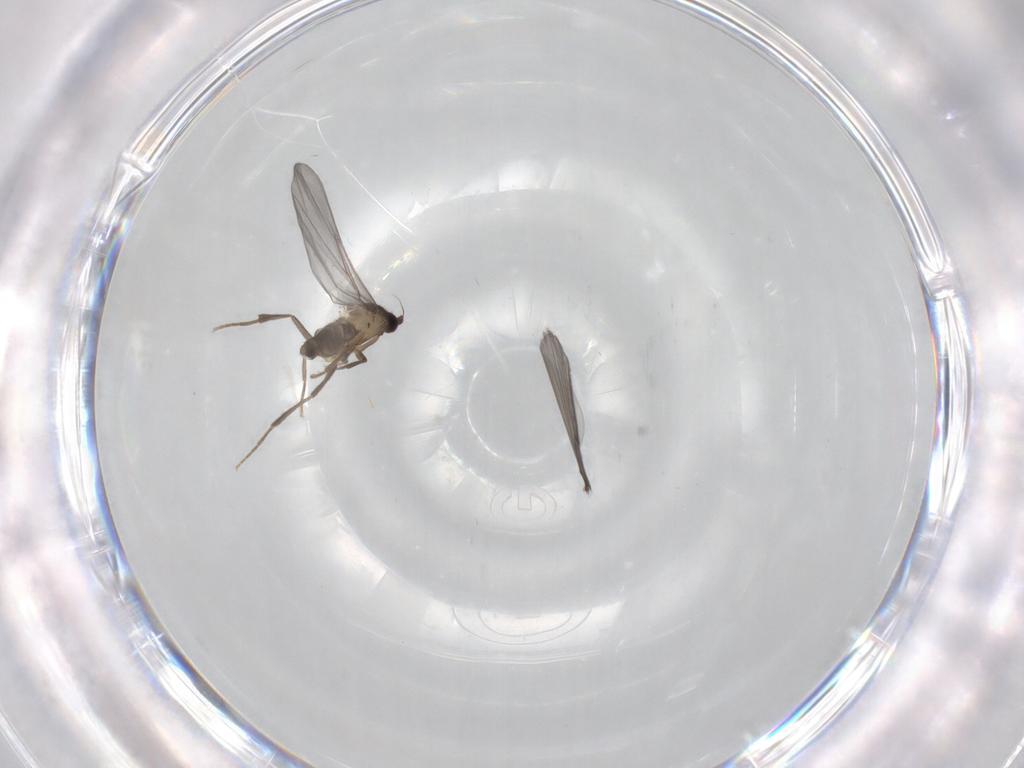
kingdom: Animalia
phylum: Arthropoda
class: Insecta
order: Diptera
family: Phoridae
